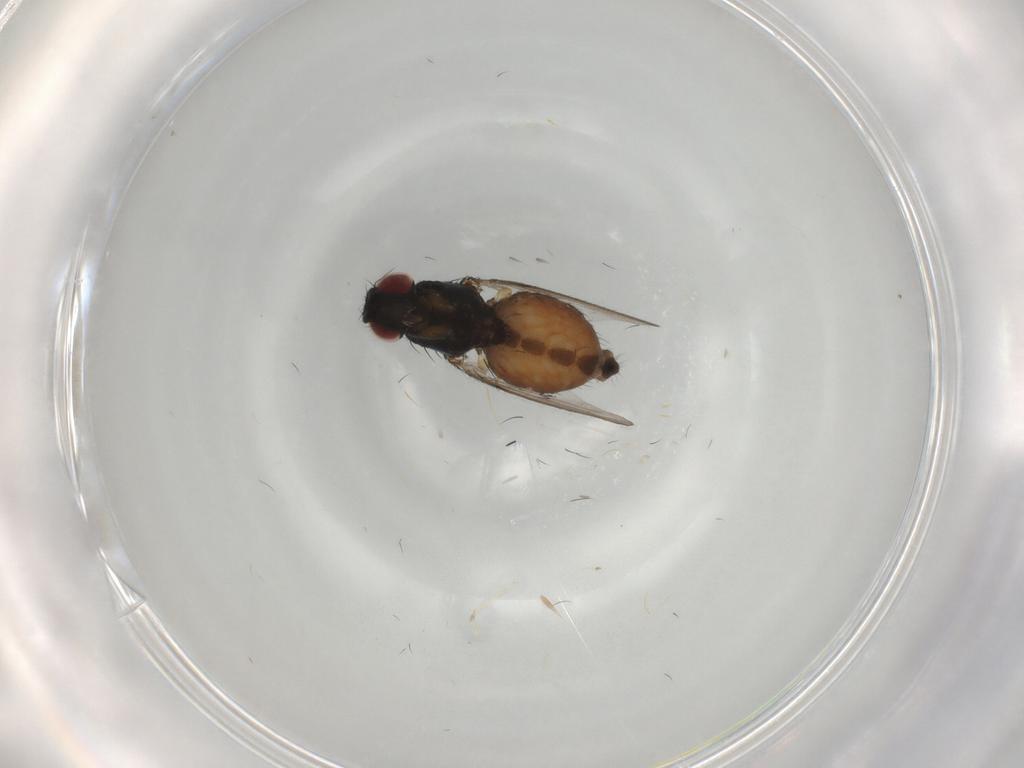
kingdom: Animalia
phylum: Arthropoda
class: Insecta
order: Diptera
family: Milichiidae
